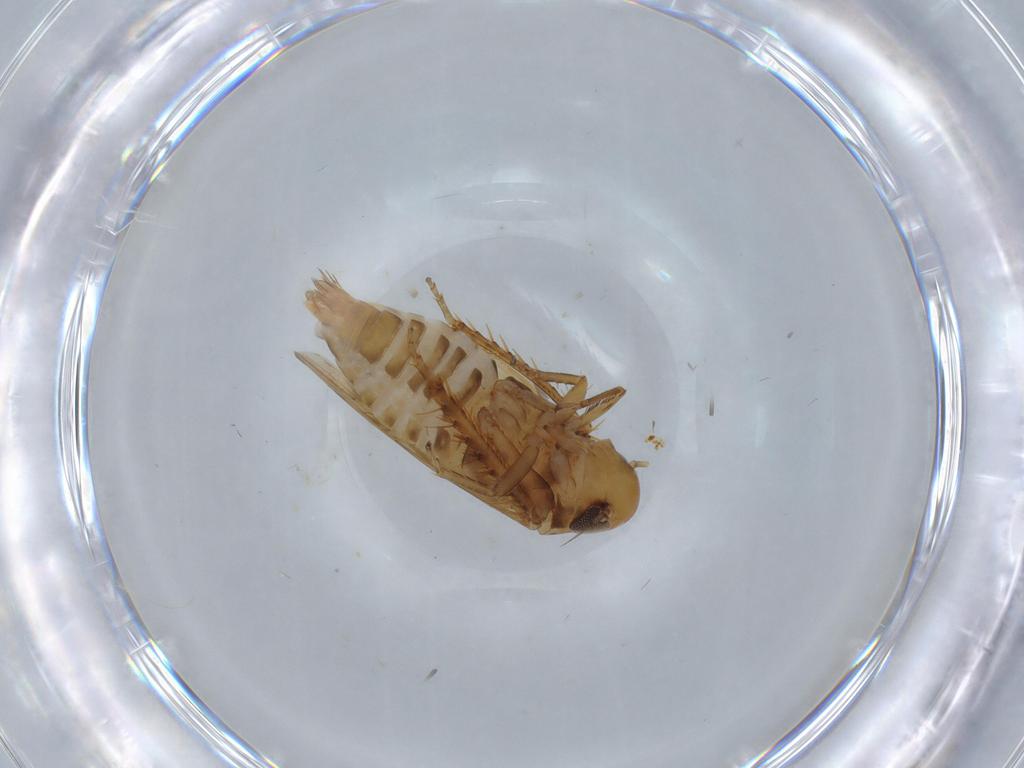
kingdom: Animalia
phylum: Arthropoda
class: Insecta
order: Hemiptera
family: Cicadellidae
